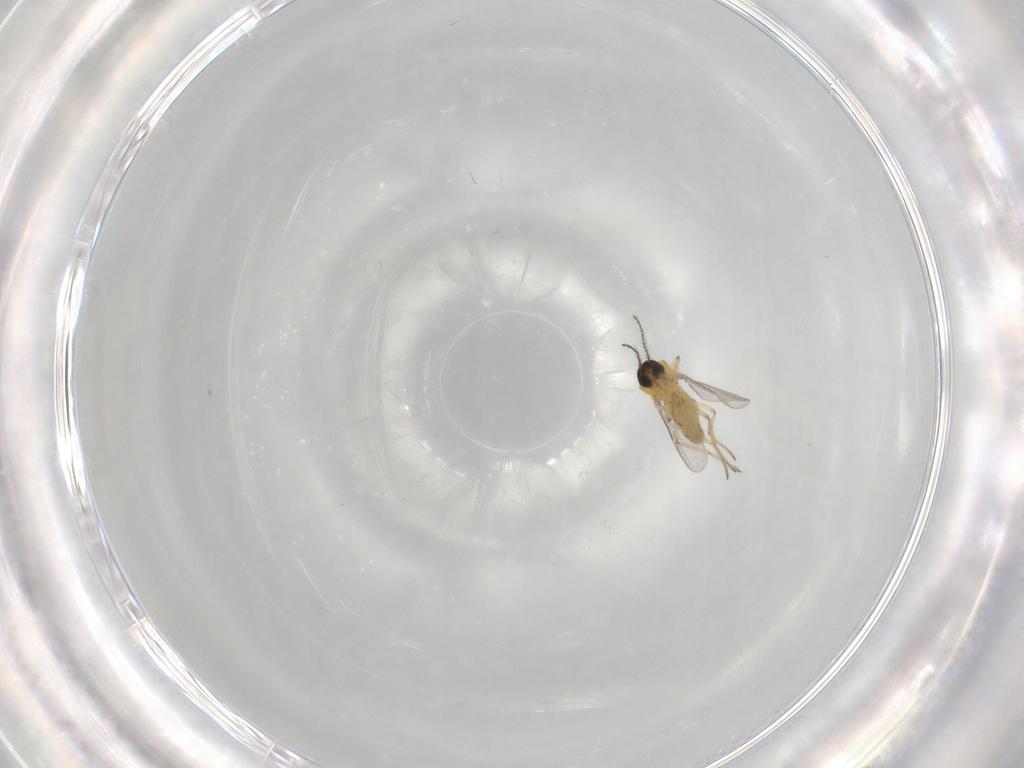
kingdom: Animalia
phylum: Arthropoda
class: Insecta
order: Diptera
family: Ceratopogonidae
